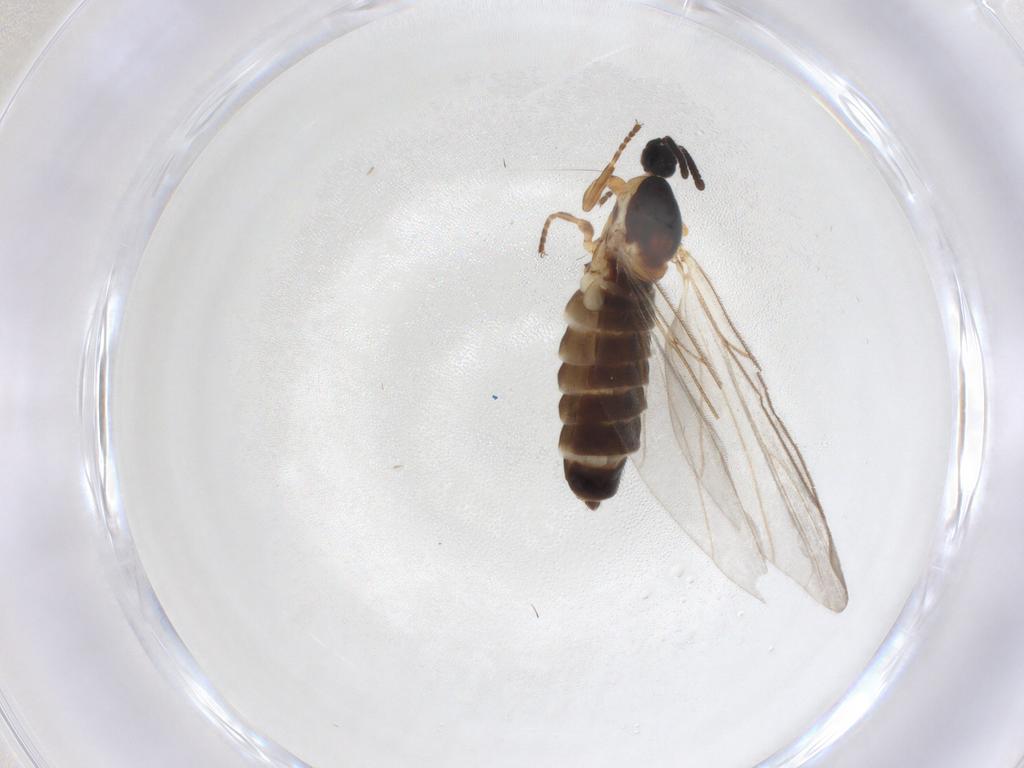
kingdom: Animalia
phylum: Arthropoda
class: Insecta
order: Diptera
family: Scatopsidae
